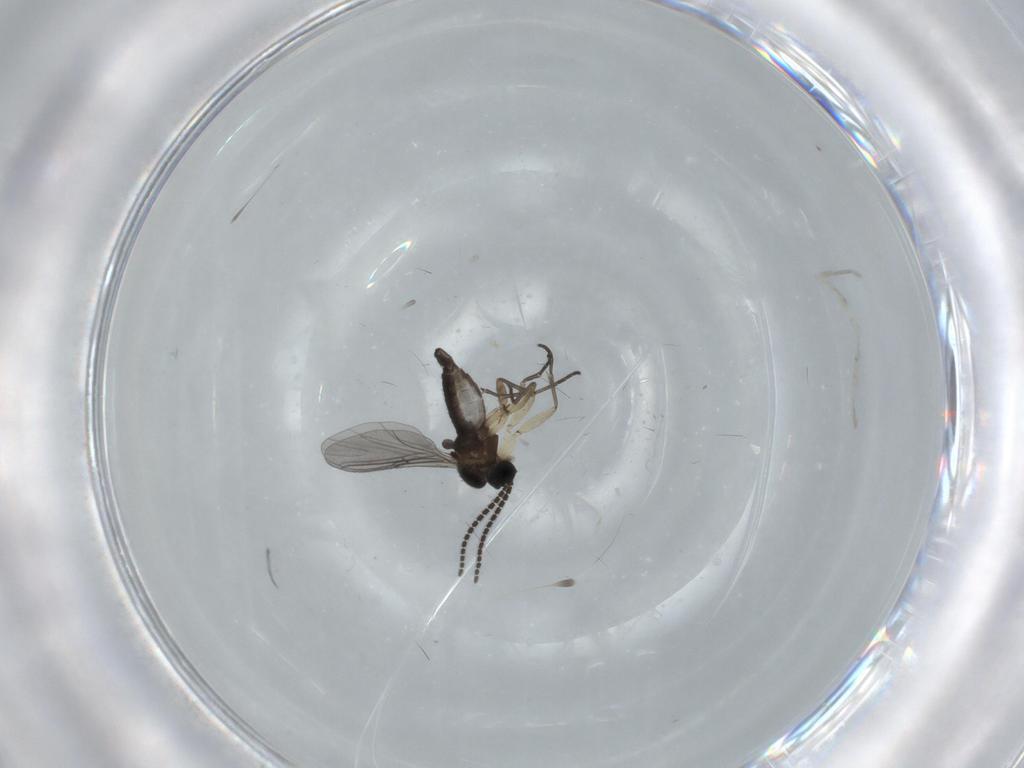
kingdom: Animalia
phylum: Arthropoda
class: Insecta
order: Diptera
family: Sciaridae
